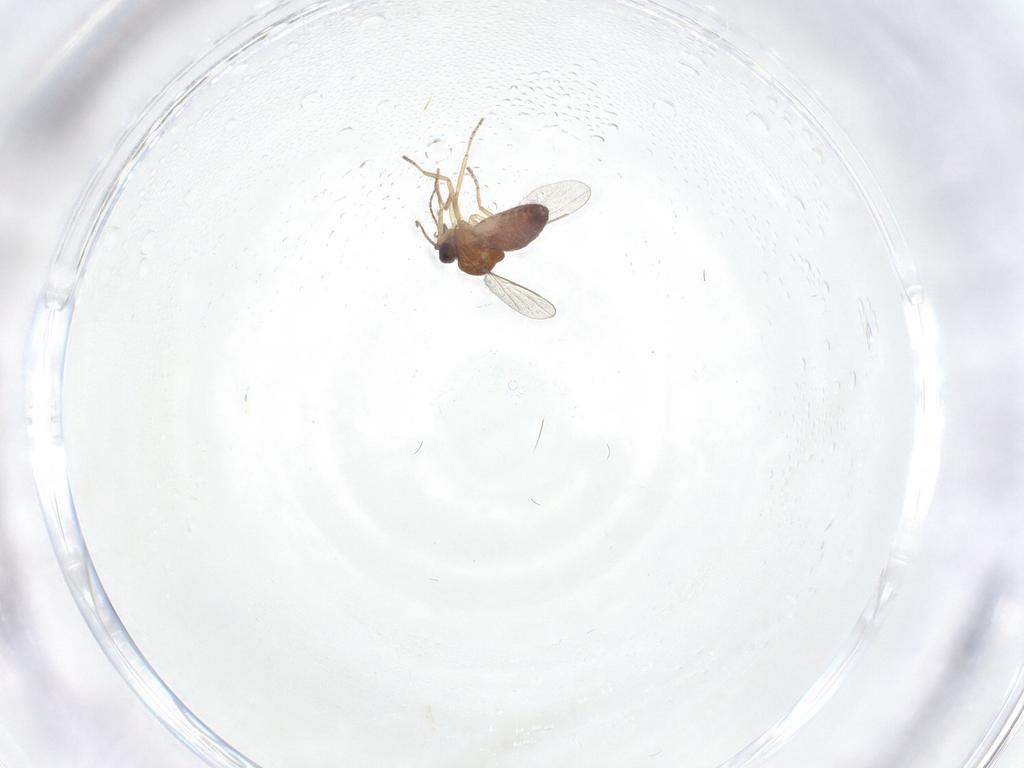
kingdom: Animalia
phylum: Arthropoda
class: Insecta
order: Diptera
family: Ceratopogonidae
